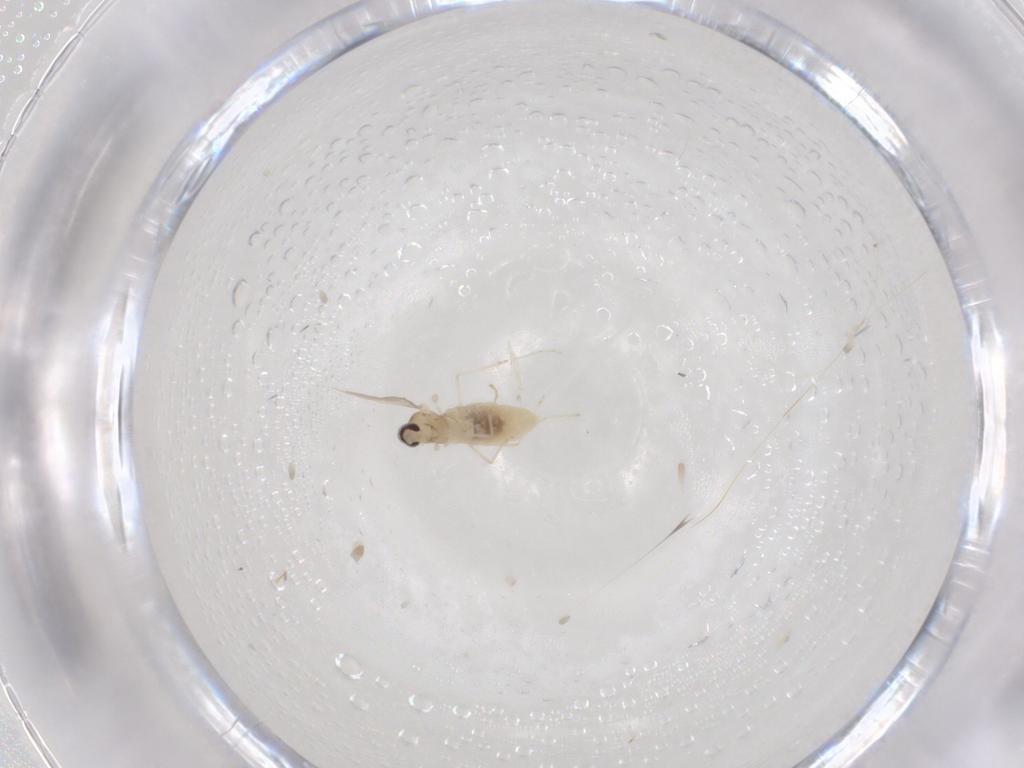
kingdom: Animalia
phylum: Arthropoda
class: Insecta
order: Diptera
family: Cecidomyiidae
